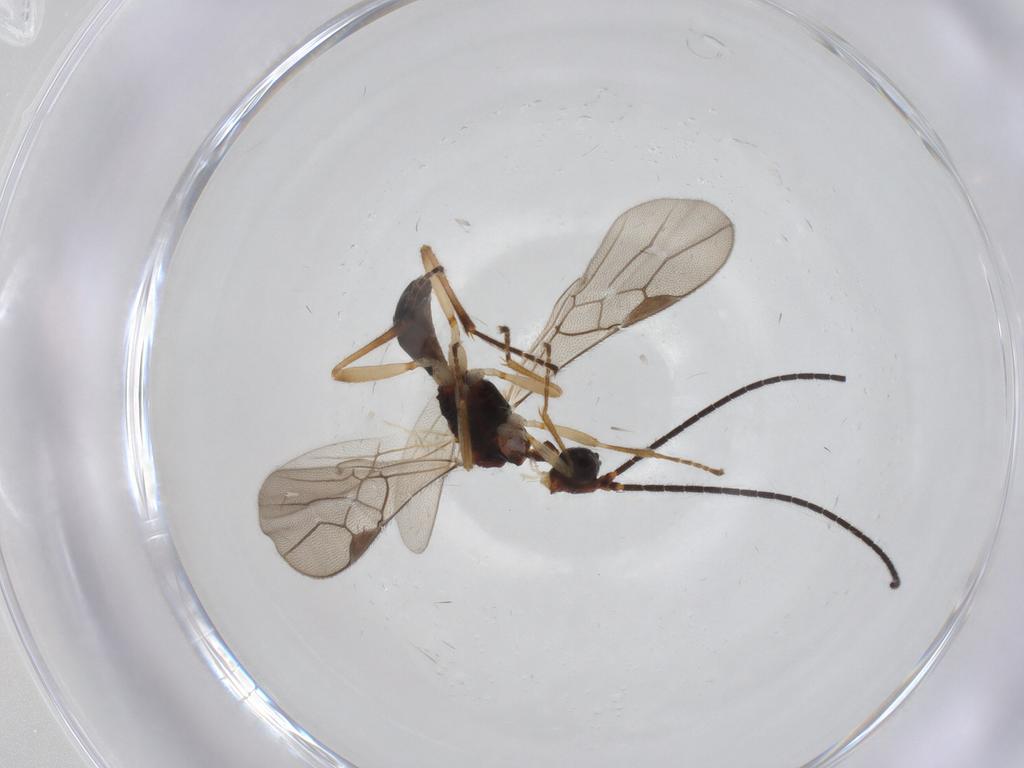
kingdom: Animalia
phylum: Arthropoda
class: Insecta
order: Hymenoptera
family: Braconidae
